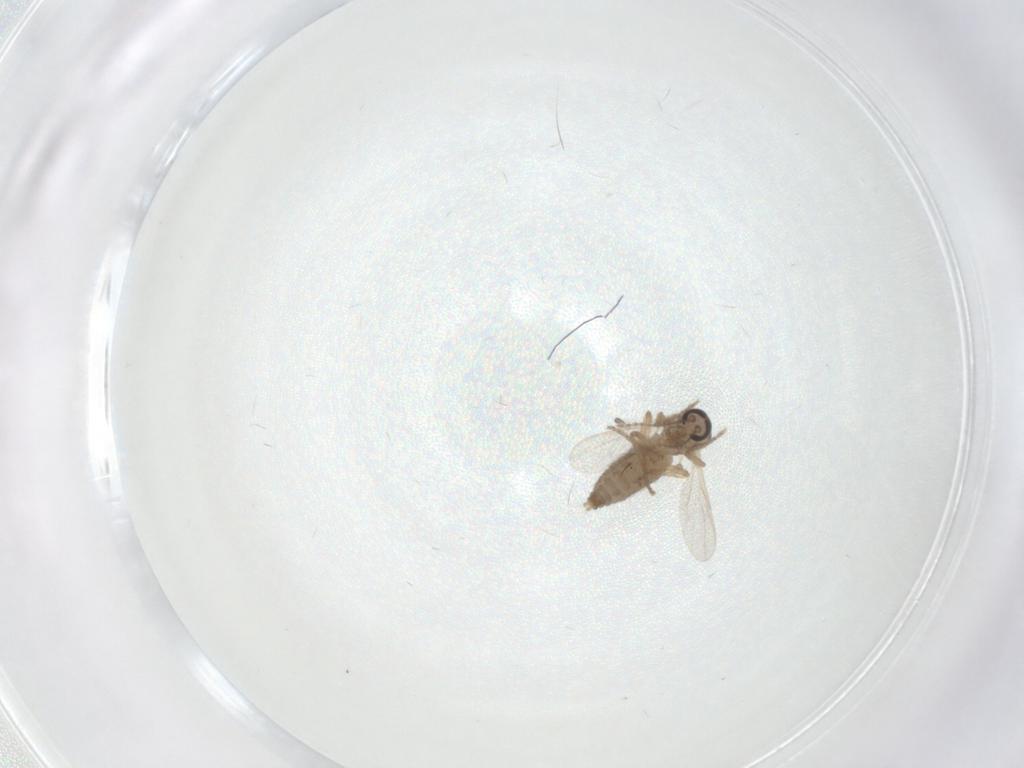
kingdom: Animalia
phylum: Arthropoda
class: Insecta
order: Diptera
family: Ceratopogonidae
